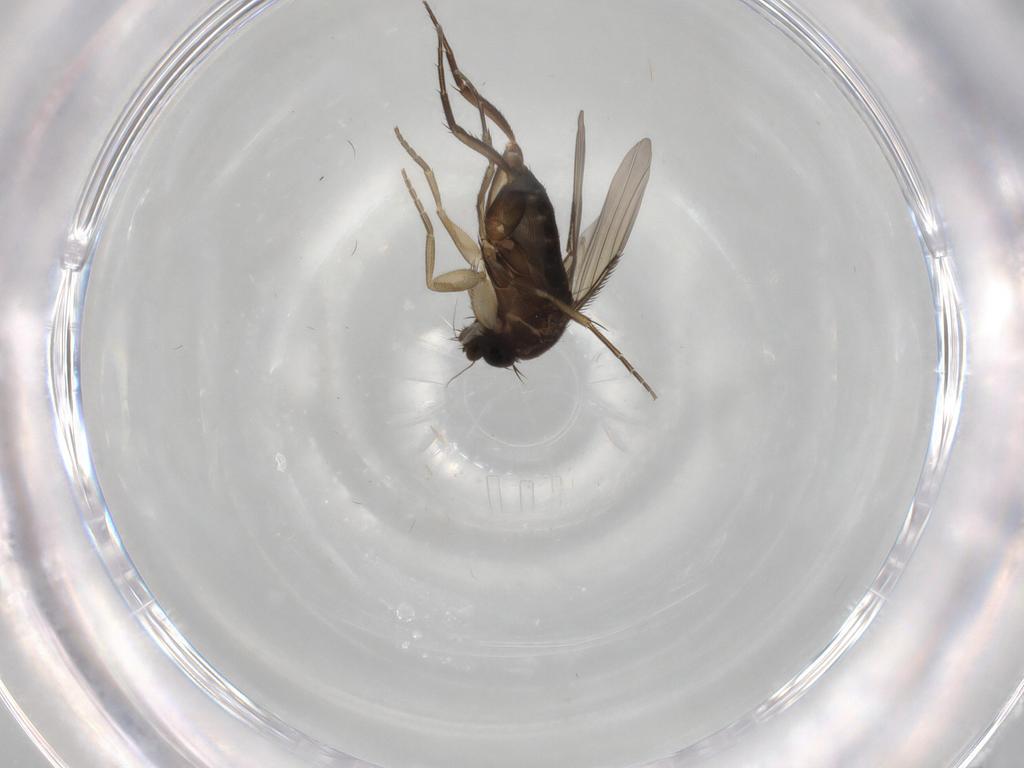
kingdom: Animalia
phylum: Arthropoda
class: Insecta
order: Diptera
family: Phoridae
